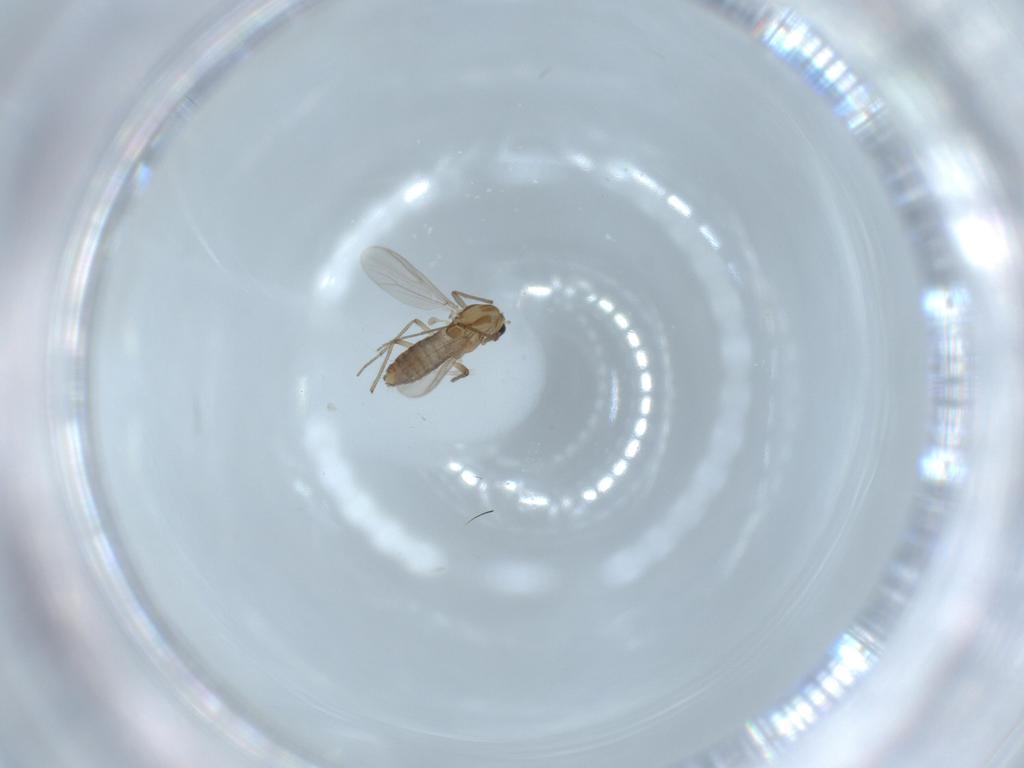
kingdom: Animalia
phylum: Arthropoda
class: Insecta
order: Diptera
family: Chironomidae
